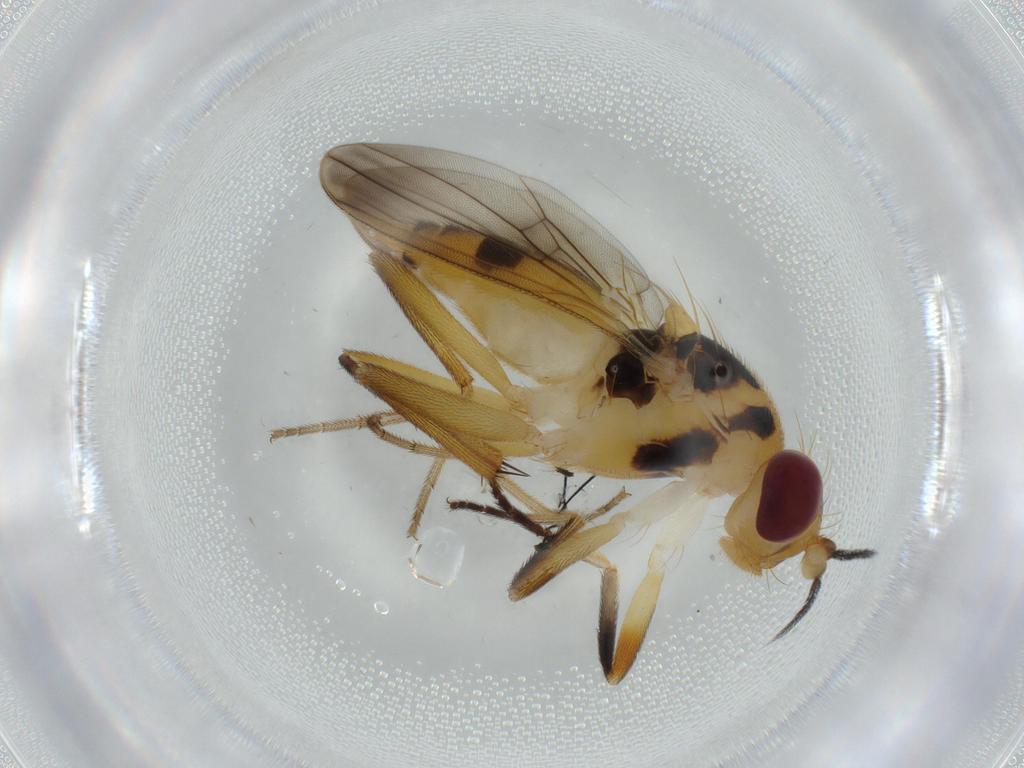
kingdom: Animalia
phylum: Arthropoda
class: Insecta
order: Diptera
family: Clusiidae
